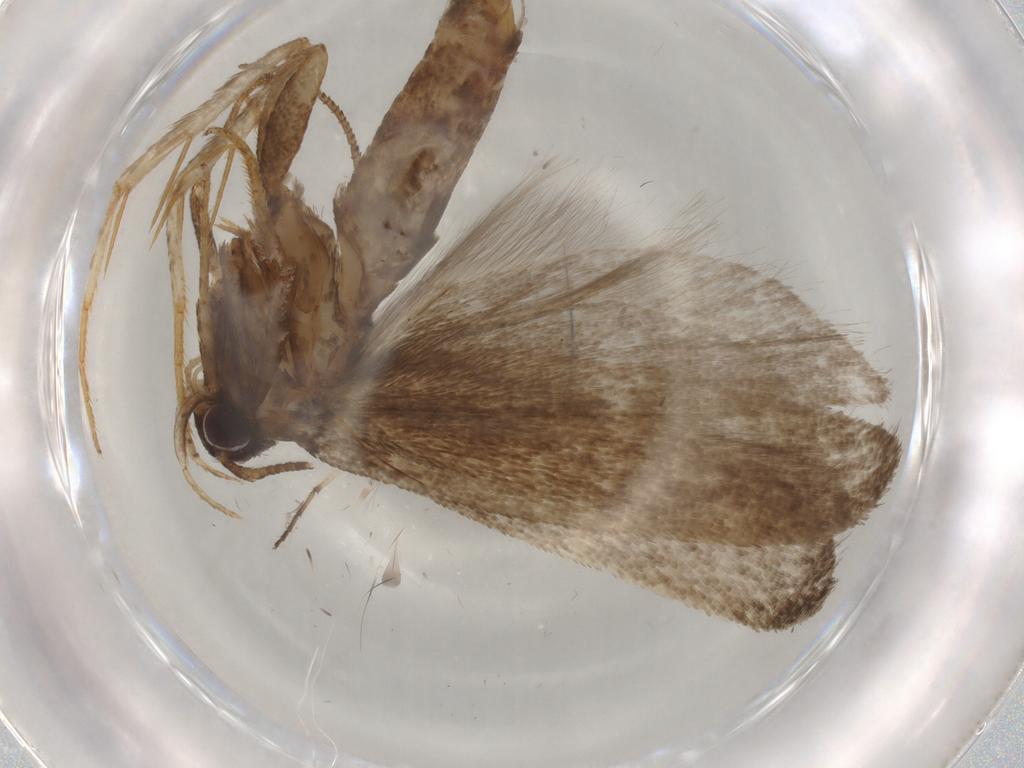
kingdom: Animalia
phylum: Arthropoda
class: Insecta
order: Lepidoptera
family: Gelechiidae
